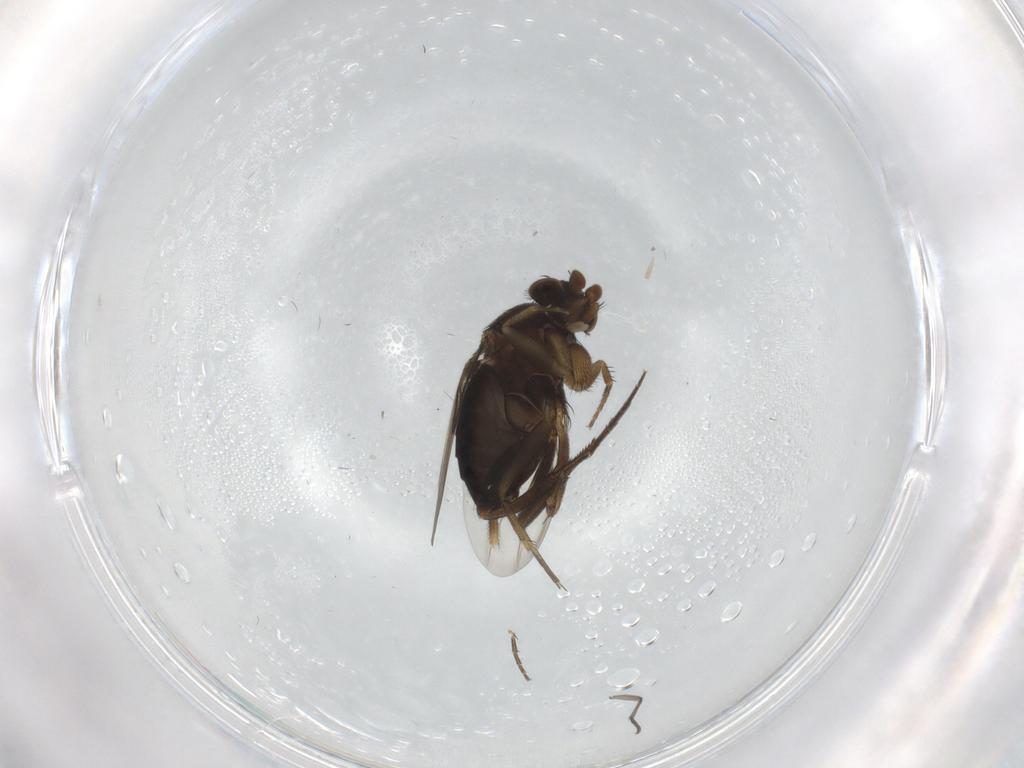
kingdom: Animalia
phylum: Arthropoda
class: Insecta
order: Diptera
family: Phoridae
